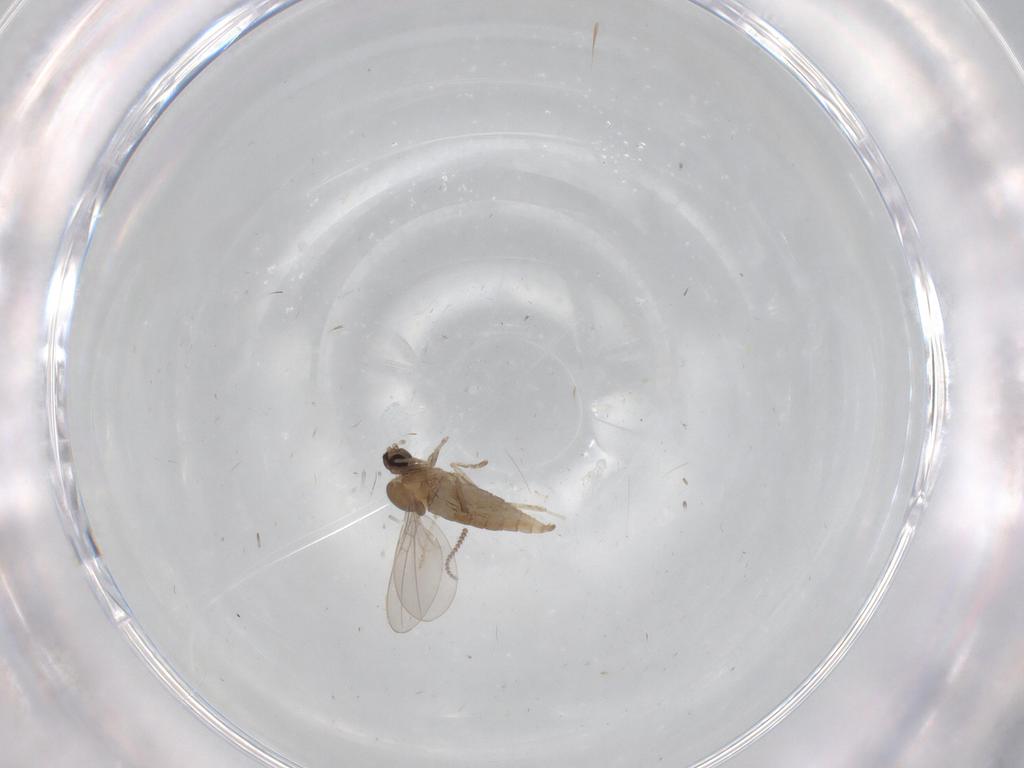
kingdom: Animalia
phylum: Arthropoda
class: Insecta
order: Diptera
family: Cecidomyiidae
